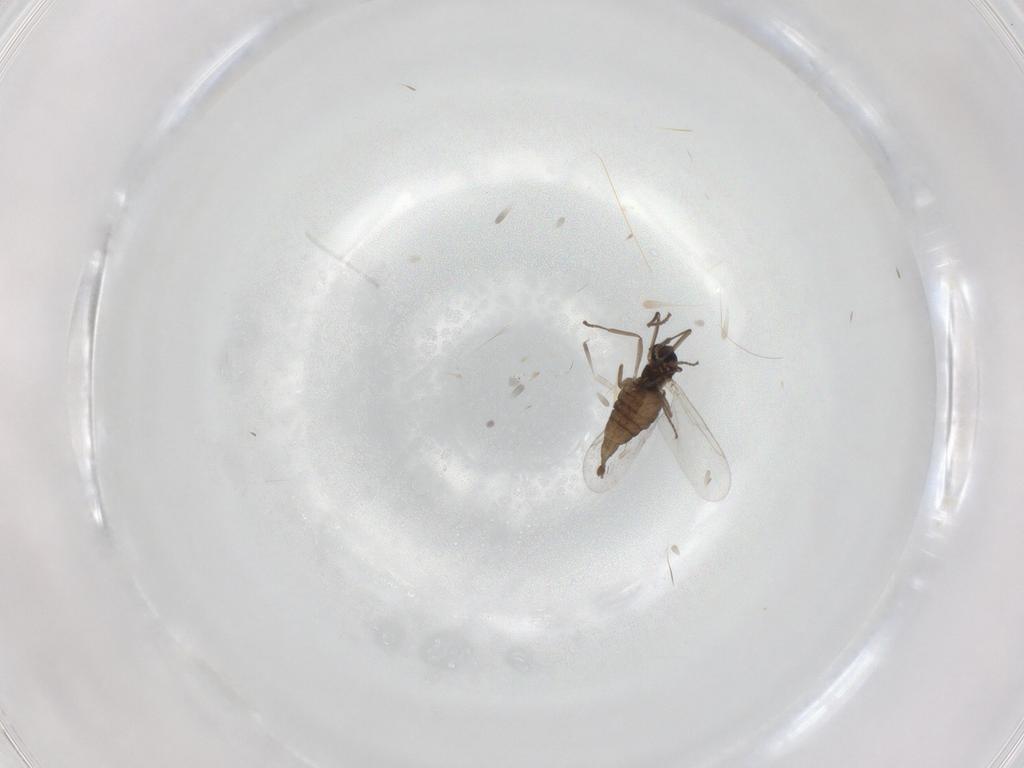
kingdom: Animalia
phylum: Arthropoda
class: Insecta
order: Diptera
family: Cecidomyiidae
